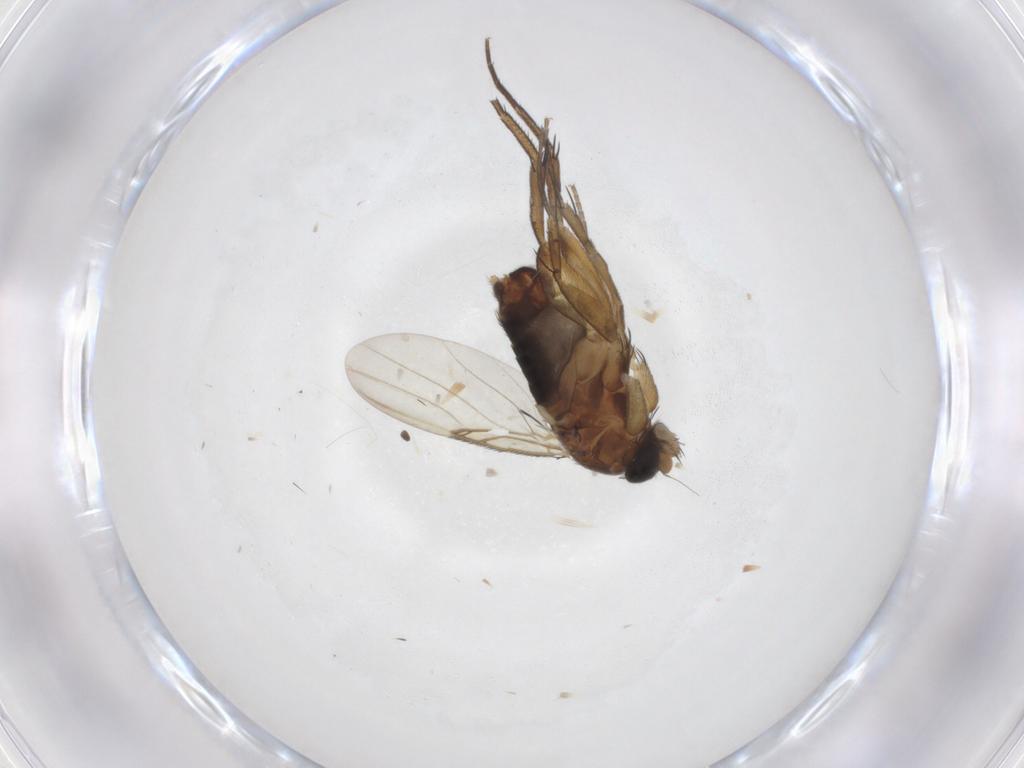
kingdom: Animalia
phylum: Arthropoda
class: Insecta
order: Diptera
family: Phoridae
